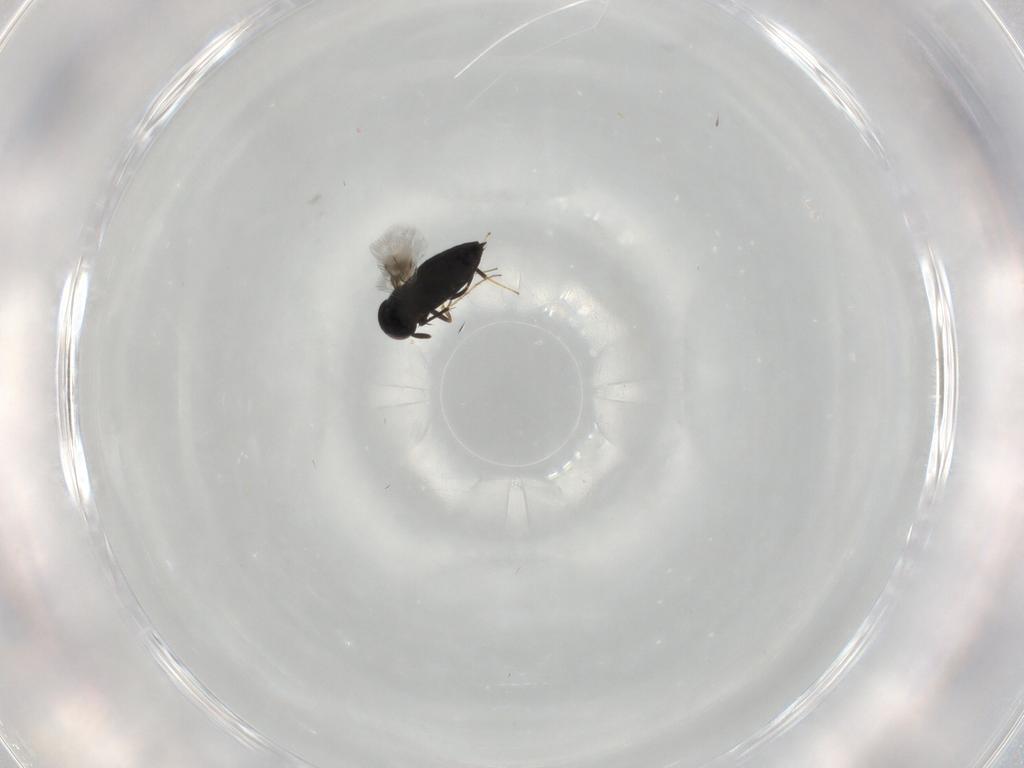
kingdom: Animalia
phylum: Arthropoda
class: Insecta
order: Hymenoptera
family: Signiphoridae
